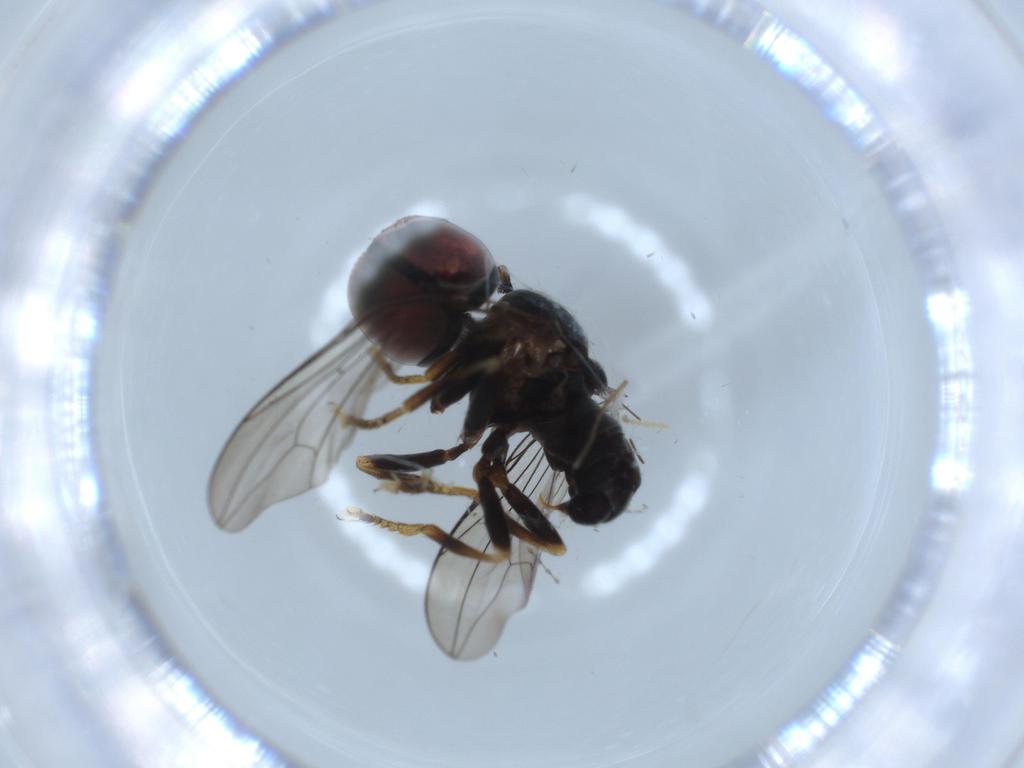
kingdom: Animalia
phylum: Arthropoda
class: Insecta
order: Diptera
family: Pipunculidae
